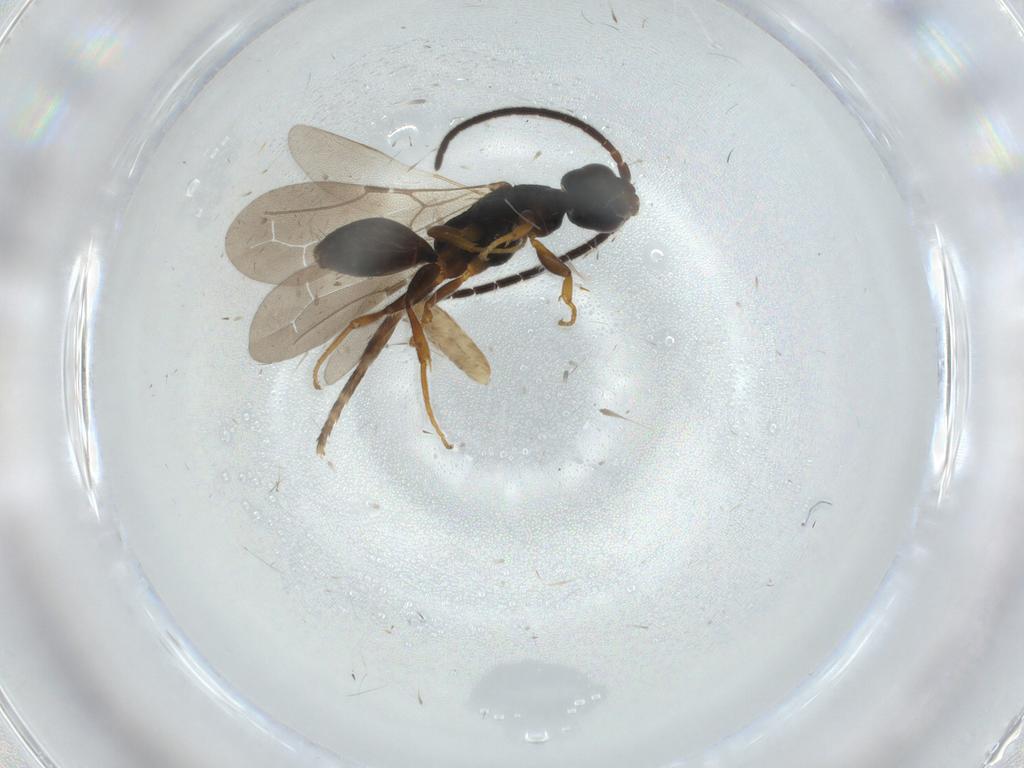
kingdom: Animalia
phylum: Arthropoda
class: Insecta
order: Hymenoptera
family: Bethylidae
